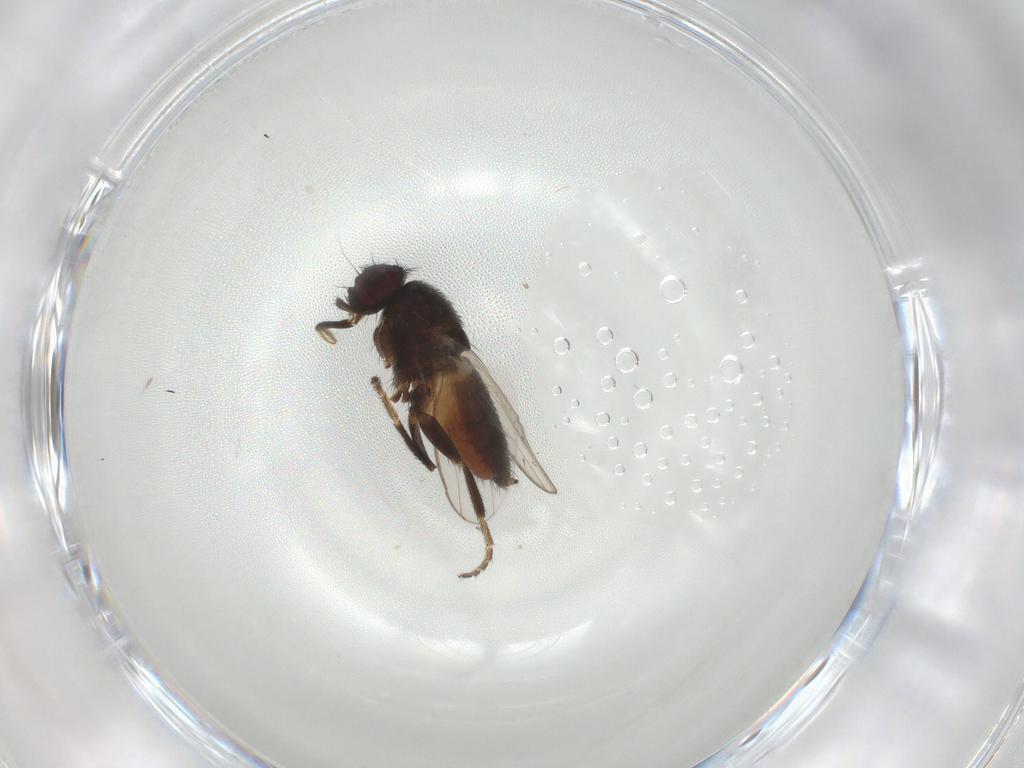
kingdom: Animalia
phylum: Arthropoda
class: Insecta
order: Diptera
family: Milichiidae
